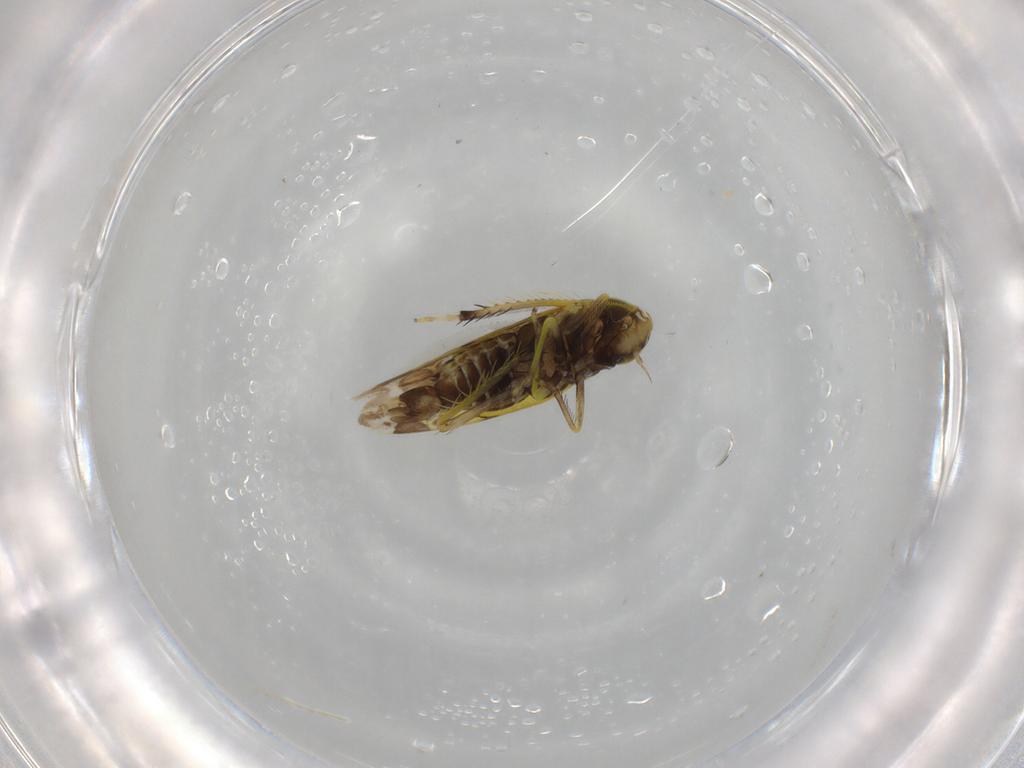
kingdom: Animalia
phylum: Arthropoda
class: Insecta
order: Hemiptera
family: Cicadellidae
